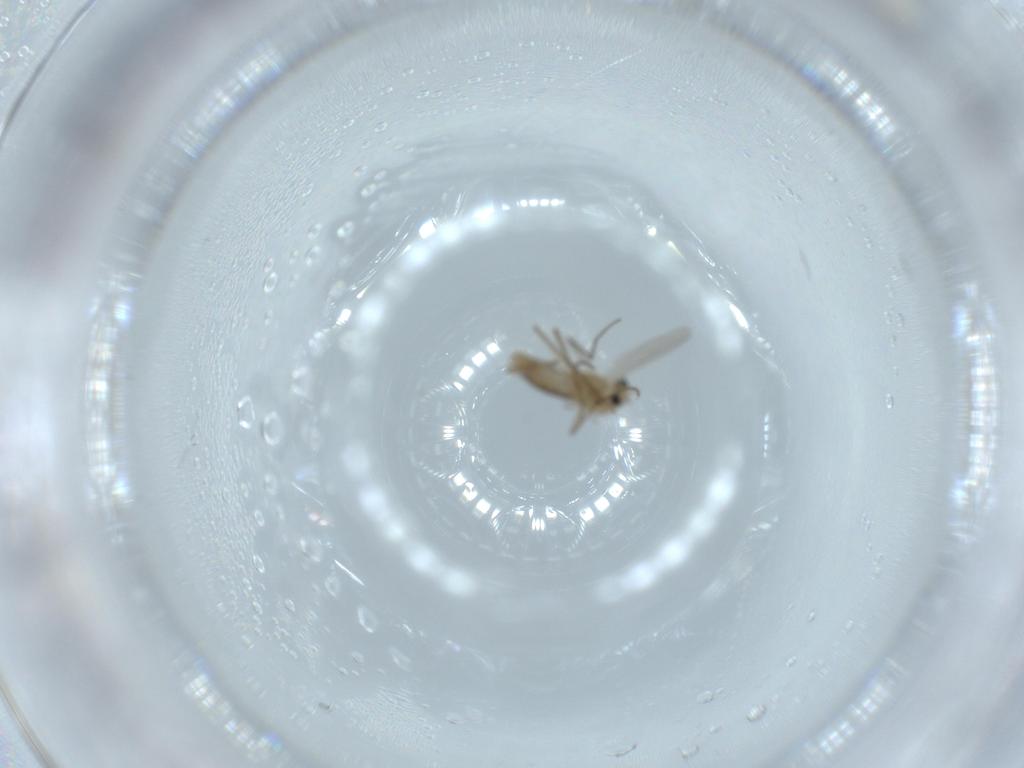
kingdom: Animalia
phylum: Arthropoda
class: Insecta
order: Diptera
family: Chironomidae
